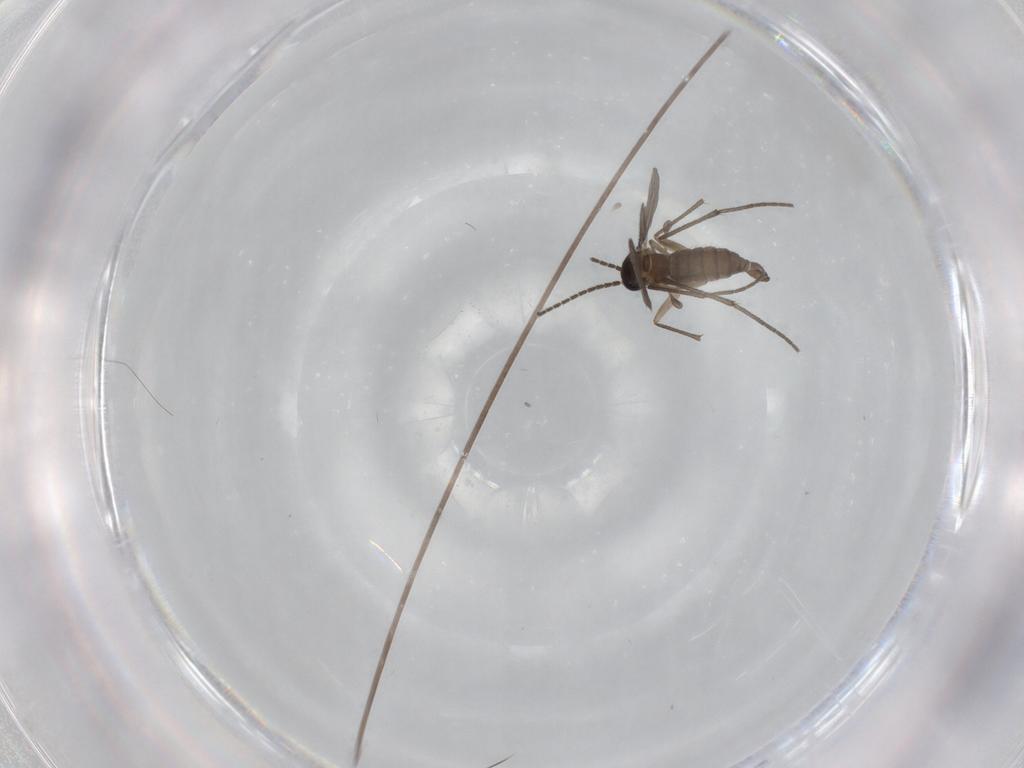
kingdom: Animalia
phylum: Arthropoda
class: Insecta
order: Diptera
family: Sciaridae
